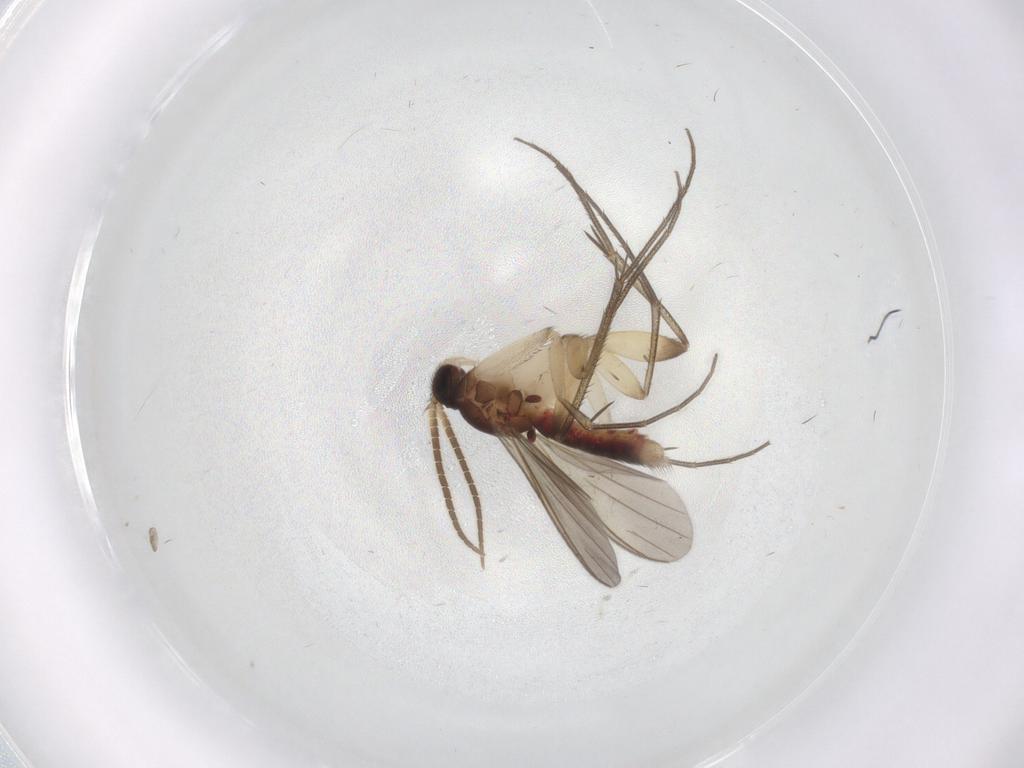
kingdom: Animalia
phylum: Arthropoda
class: Insecta
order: Diptera
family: Mycetophilidae
